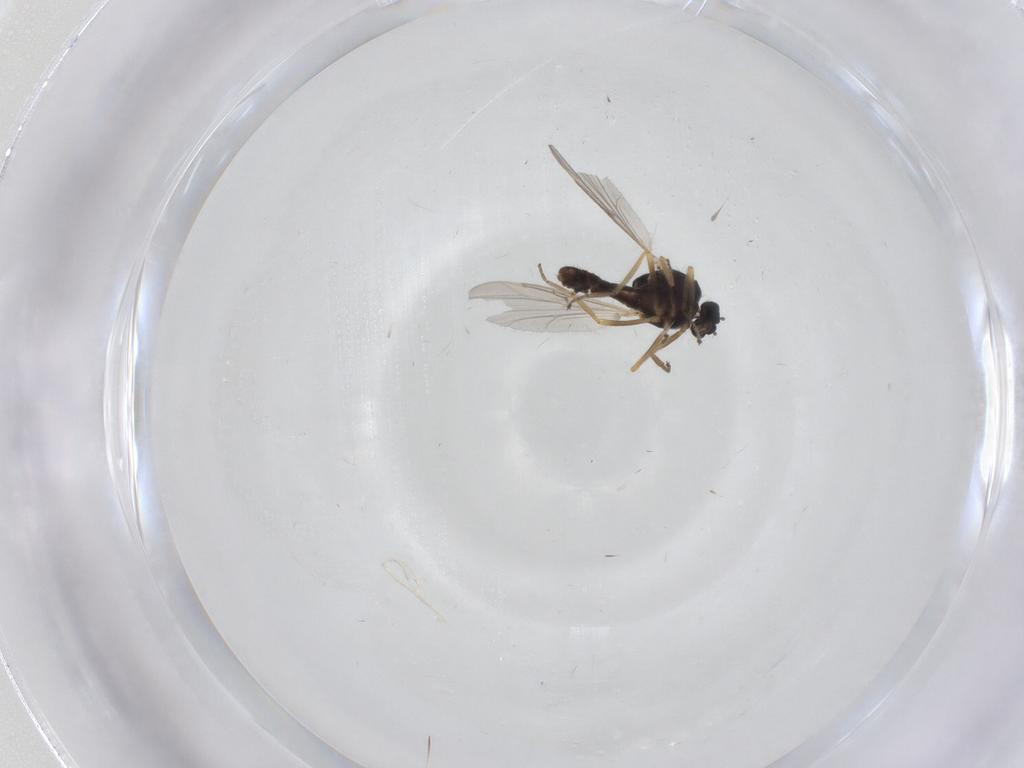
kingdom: Animalia
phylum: Arthropoda
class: Insecta
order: Diptera
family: Ceratopogonidae
